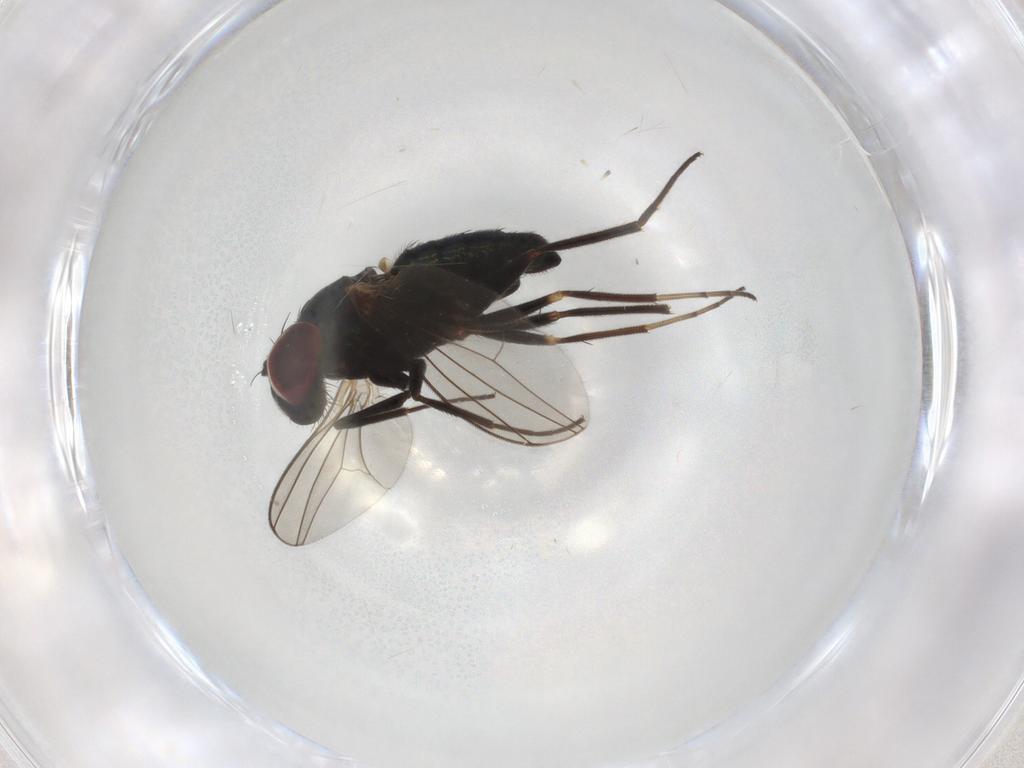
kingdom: Animalia
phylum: Arthropoda
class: Insecta
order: Diptera
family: Dolichopodidae
